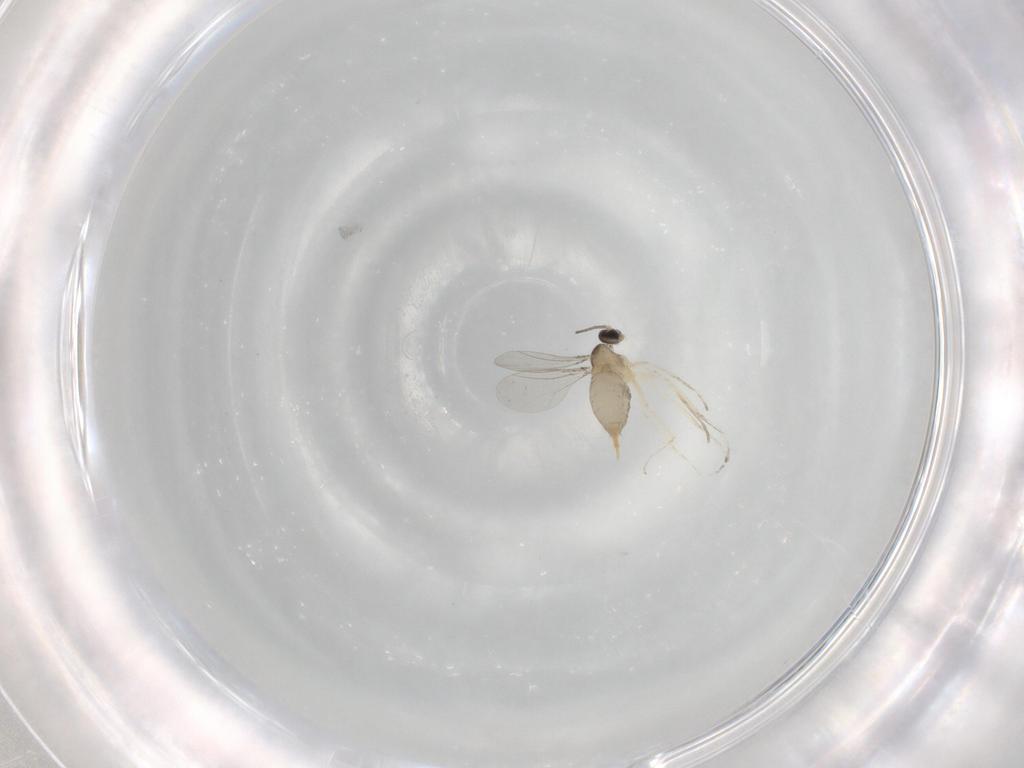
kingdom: Animalia
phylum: Arthropoda
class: Insecta
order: Diptera
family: Cecidomyiidae
